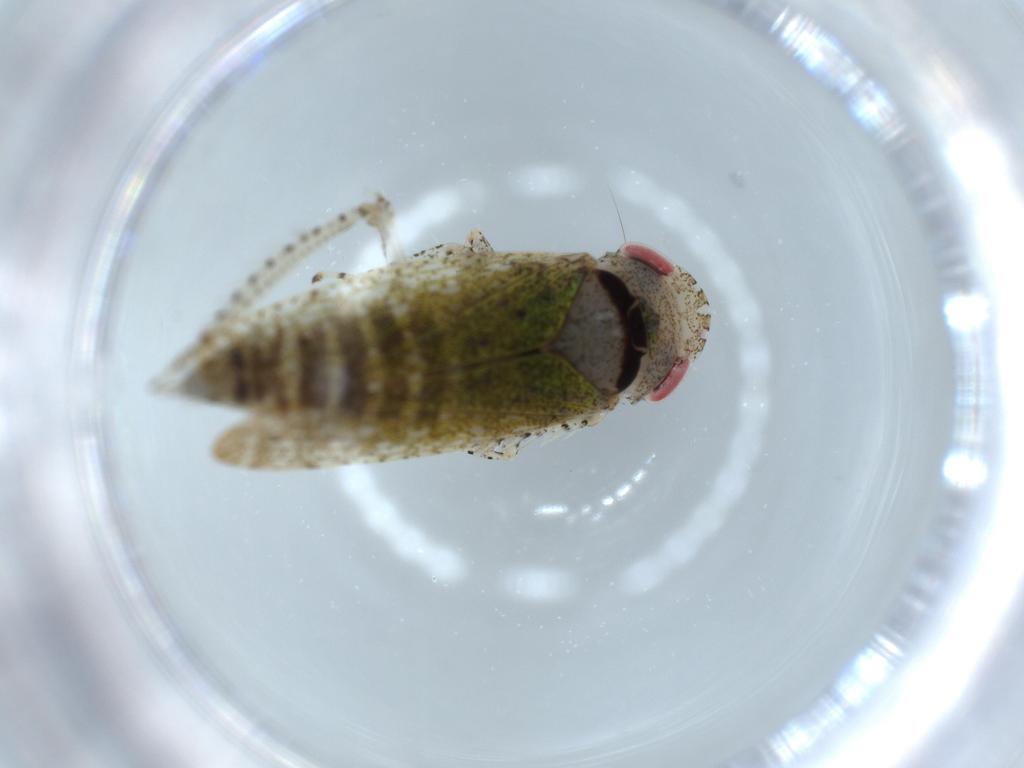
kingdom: Animalia
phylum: Arthropoda
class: Insecta
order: Hemiptera
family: Cicadellidae
